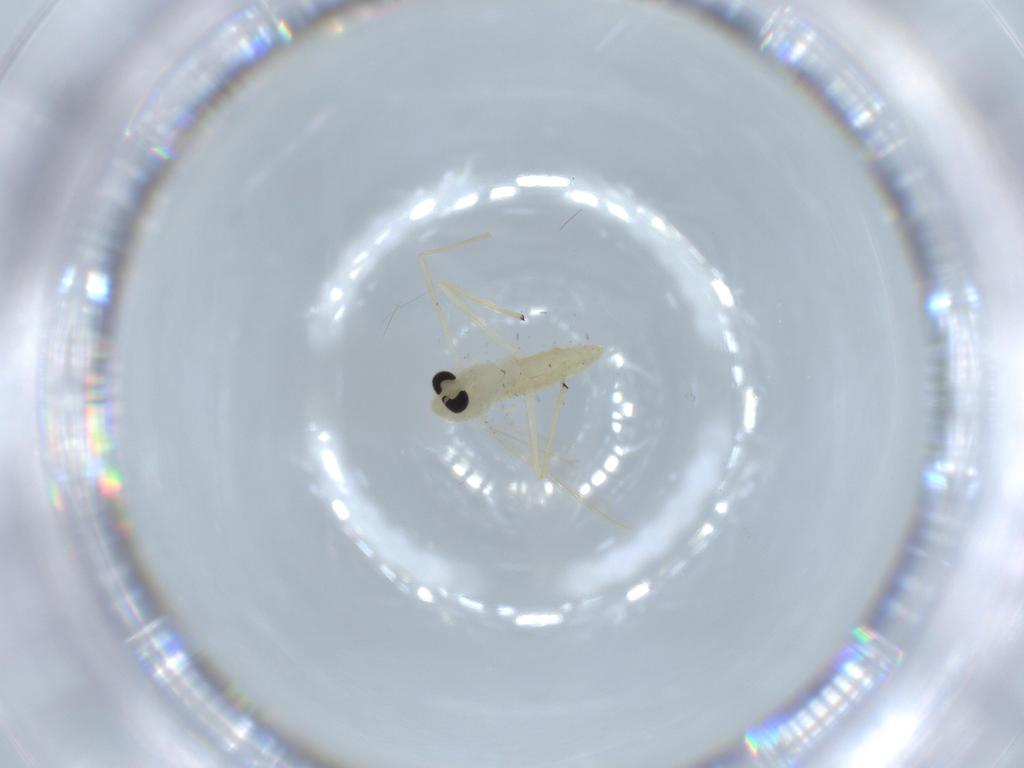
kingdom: Animalia
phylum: Arthropoda
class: Insecta
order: Diptera
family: Chironomidae
